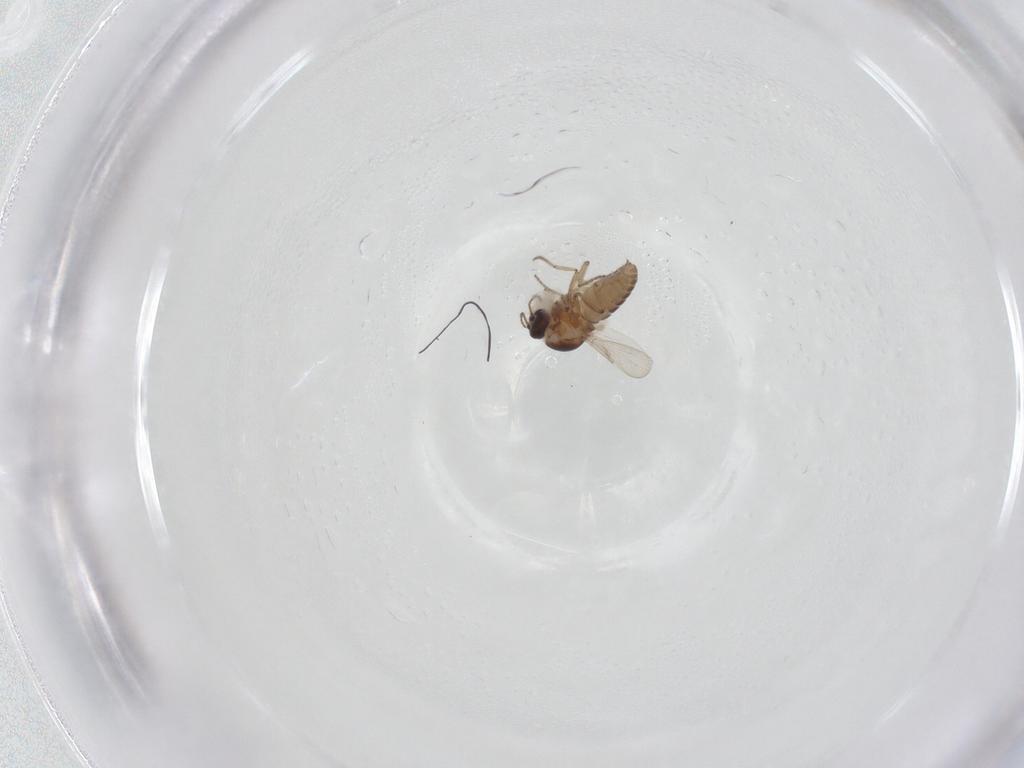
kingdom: Animalia
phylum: Arthropoda
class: Insecta
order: Diptera
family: Ceratopogonidae
